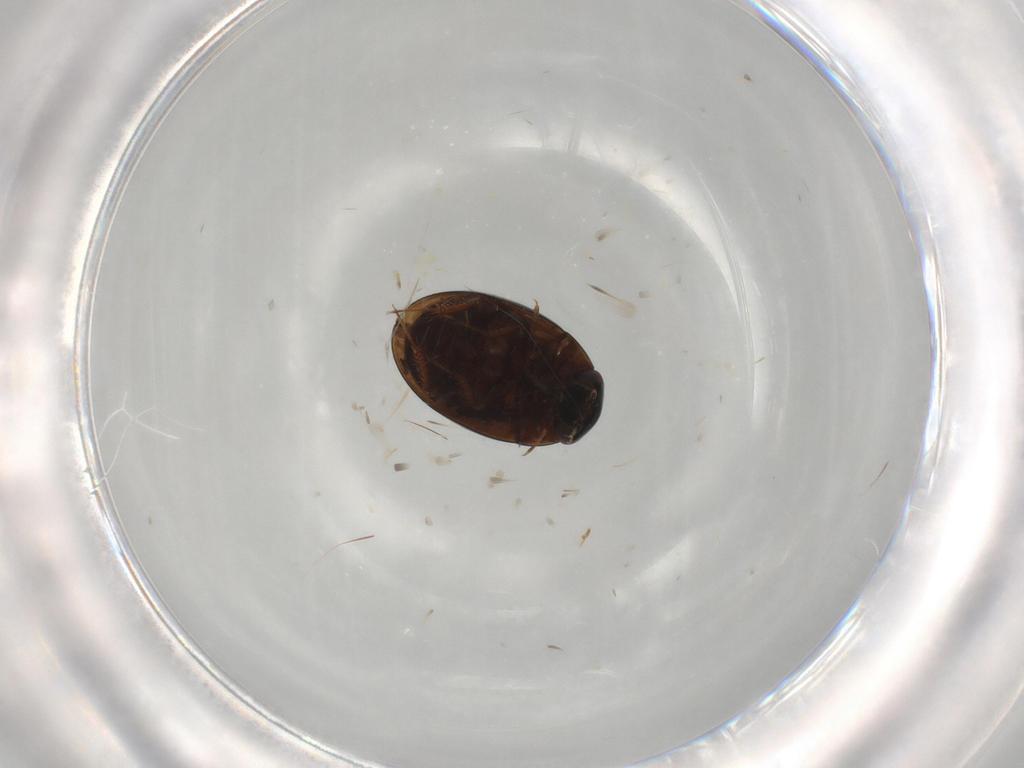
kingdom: Animalia
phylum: Arthropoda
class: Insecta
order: Coleoptera
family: Hydrophilidae
